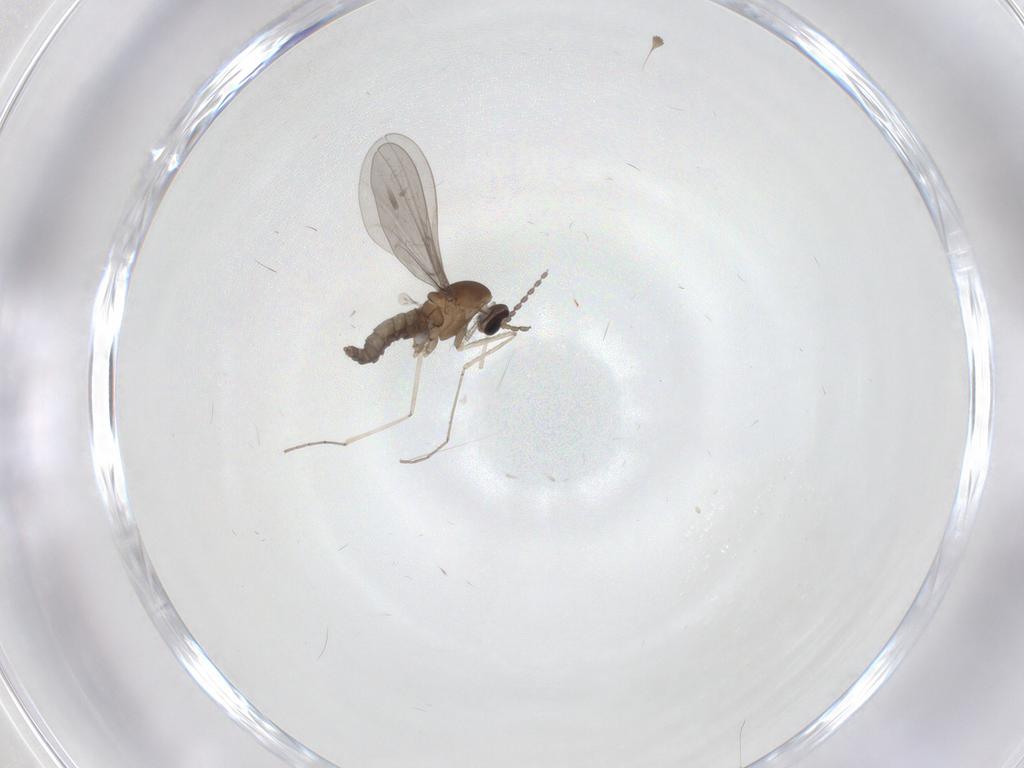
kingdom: Animalia
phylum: Arthropoda
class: Insecta
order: Diptera
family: Cecidomyiidae
